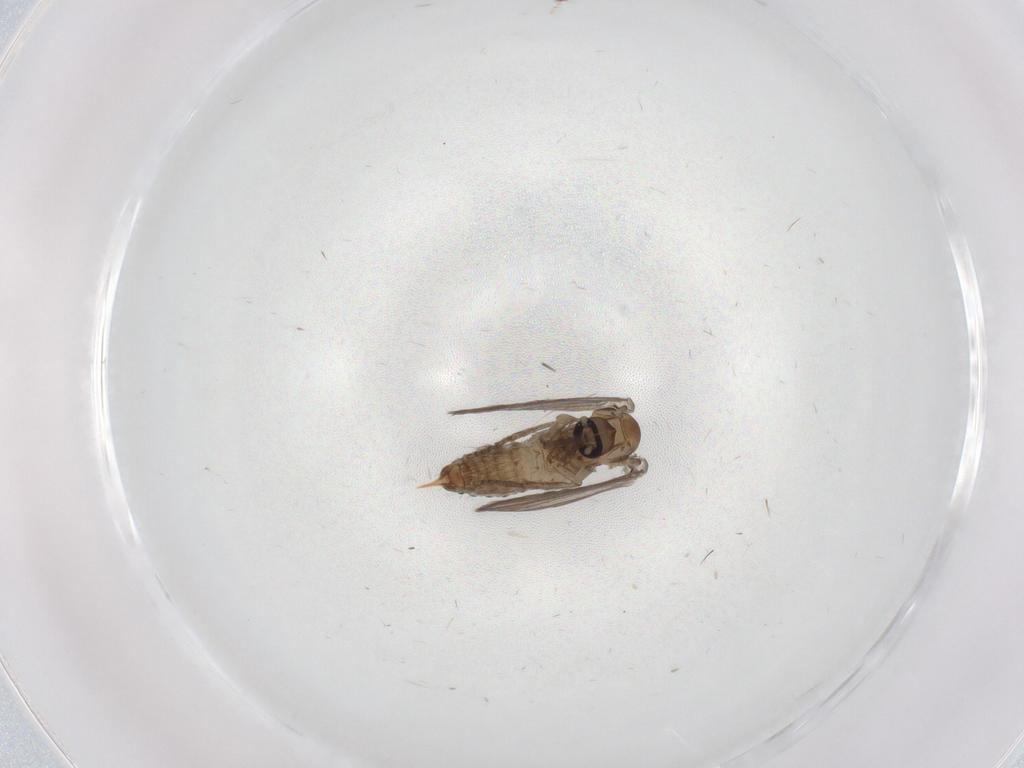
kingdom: Animalia
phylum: Arthropoda
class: Insecta
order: Diptera
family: Psychodidae
